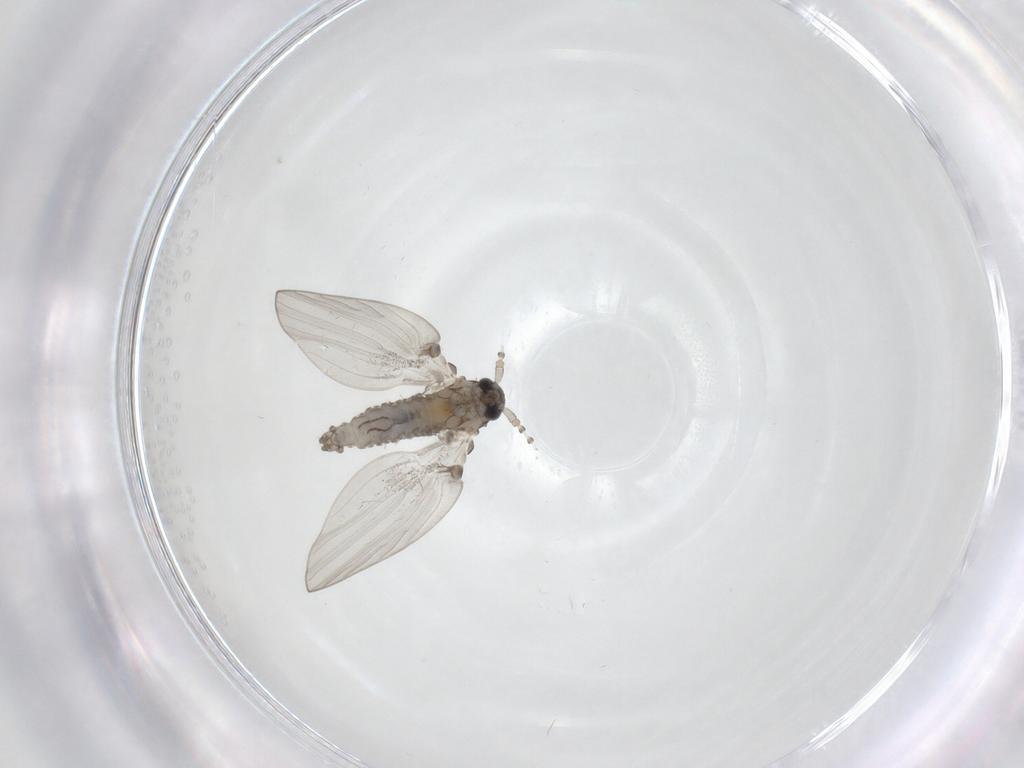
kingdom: Animalia
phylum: Arthropoda
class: Insecta
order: Diptera
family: Psychodidae
